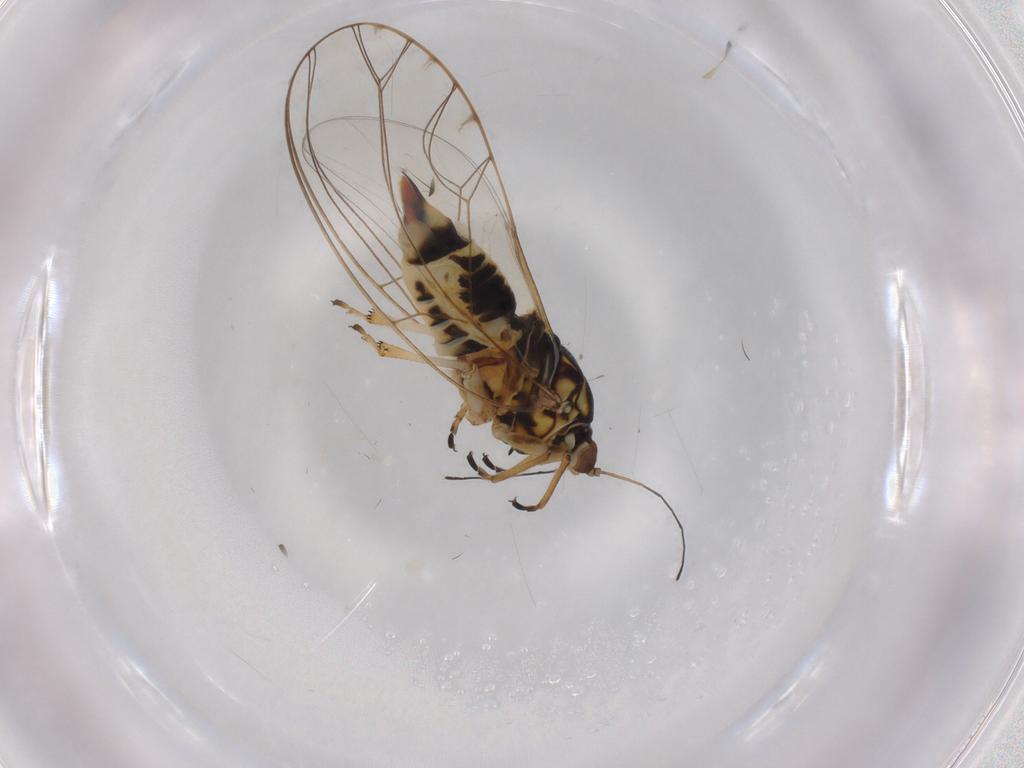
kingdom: Animalia
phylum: Arthropoda
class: Insecta
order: Hemiptera
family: Triozidae
